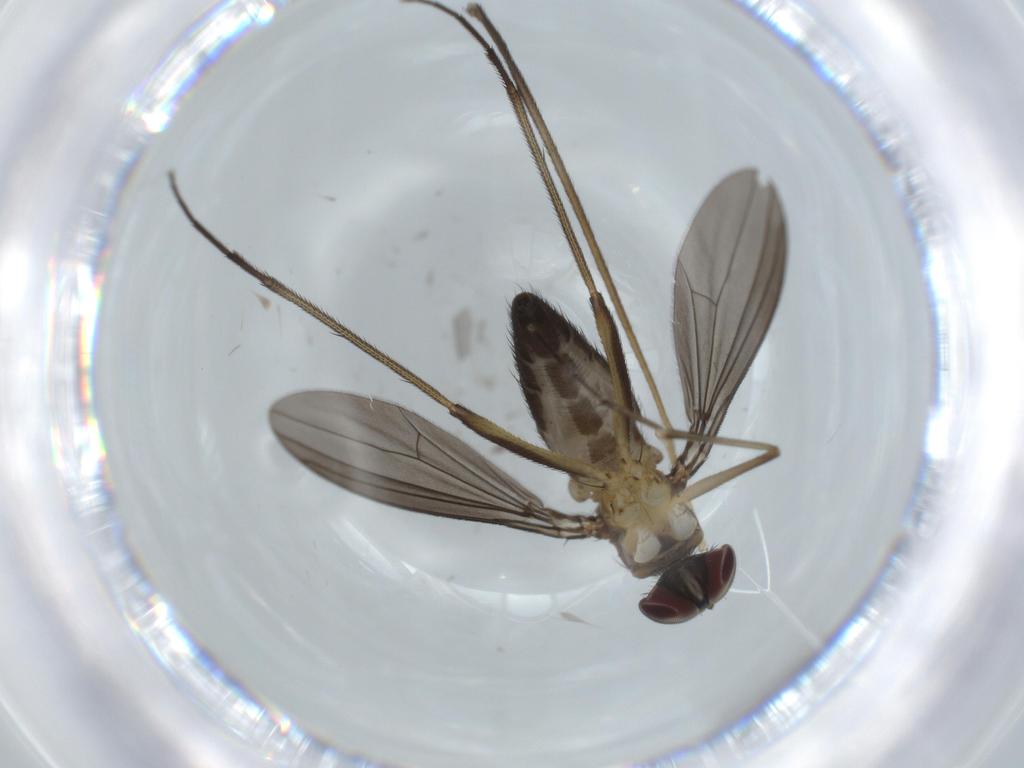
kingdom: Animalia
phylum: Arthropoda
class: Insecta
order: Diptera
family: Dolichopodidae
